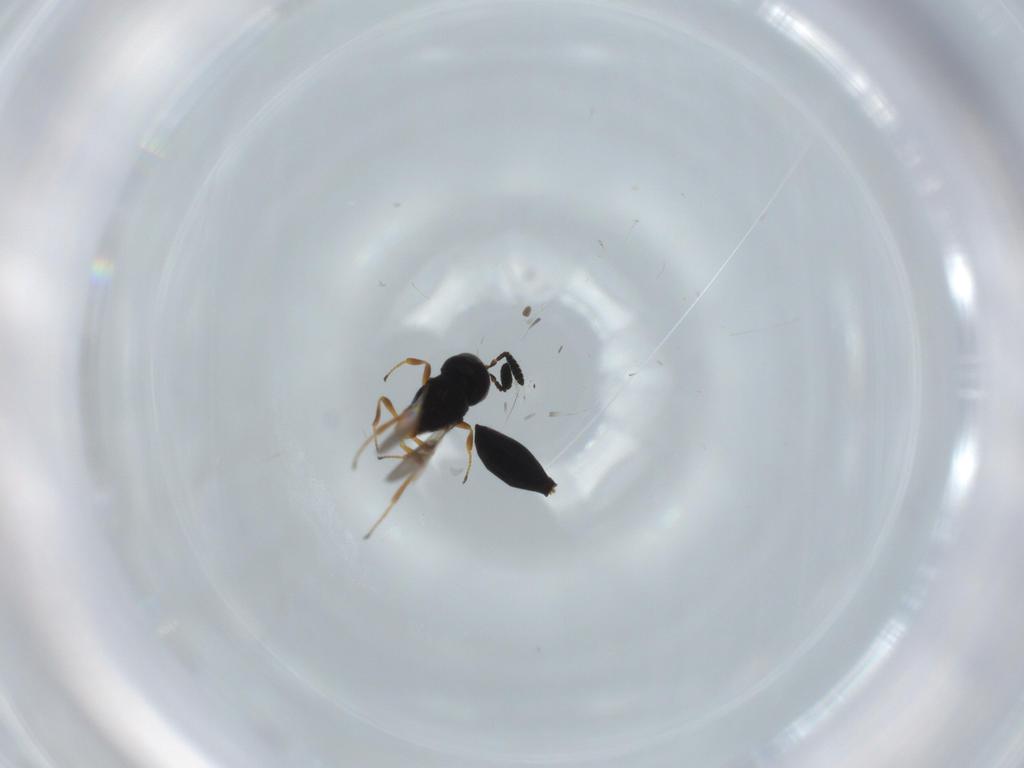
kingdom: Animalia
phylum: Arthropoda
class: Insecta
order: Hymenoptera
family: Scelionidae
